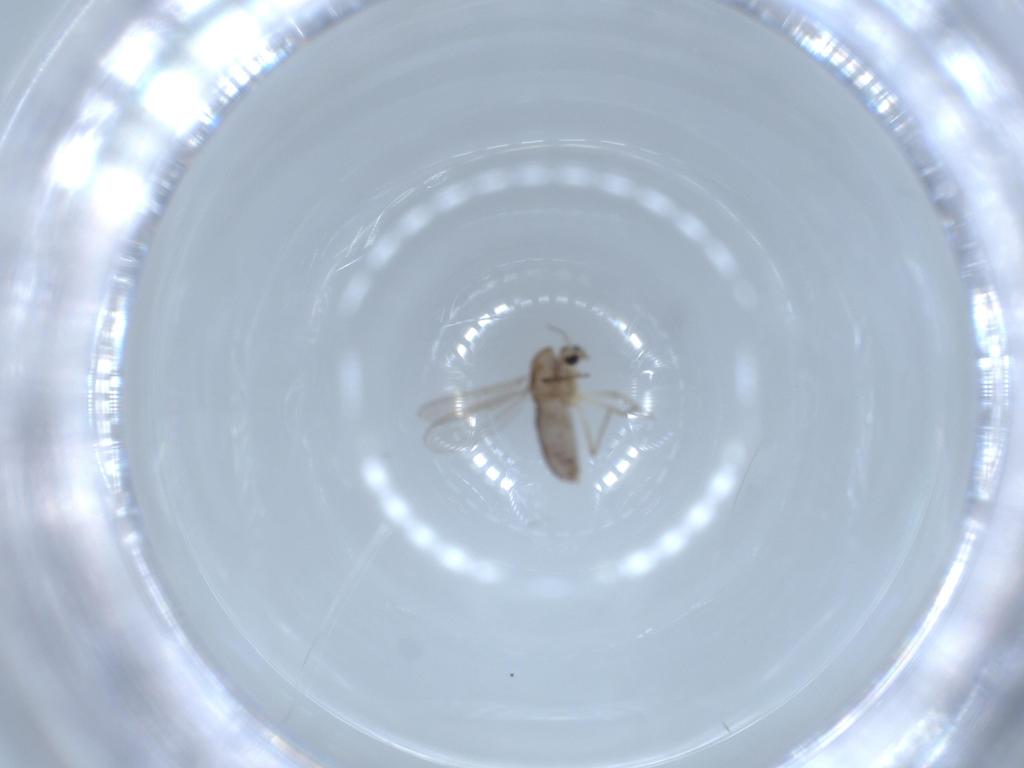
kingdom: Animalia
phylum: Arthropoda
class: Insecta
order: Diptera
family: Chironomidae
